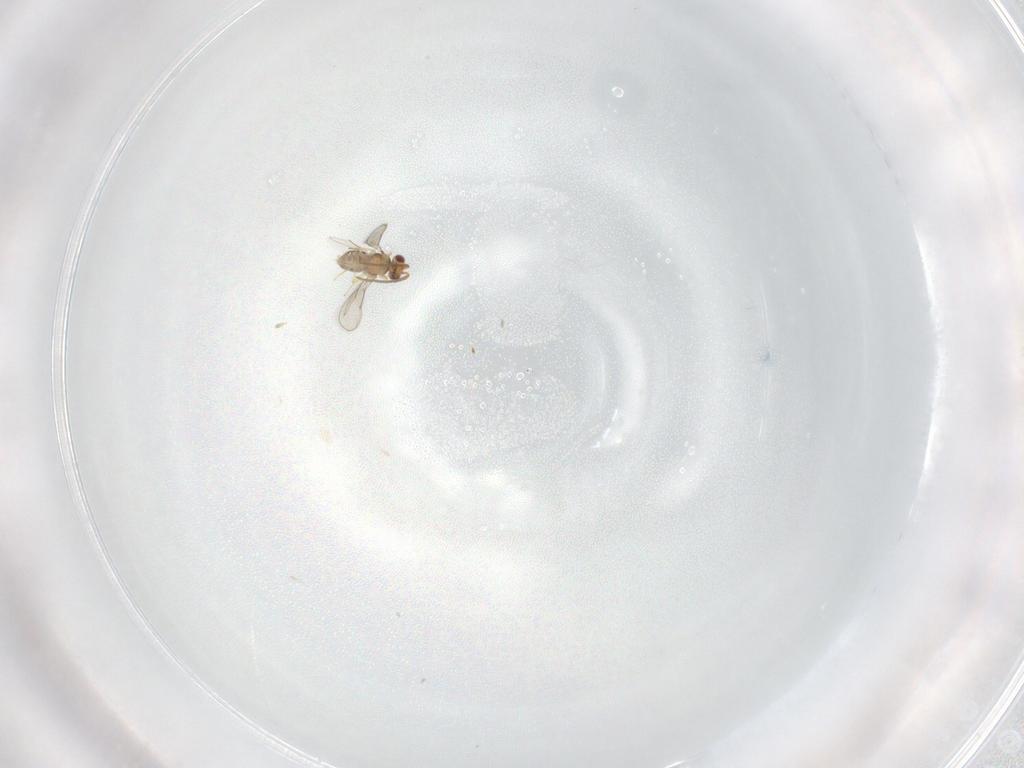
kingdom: Animalia
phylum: Arthropoda
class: Insecta
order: Hymenoptera
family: Aphelinidae
